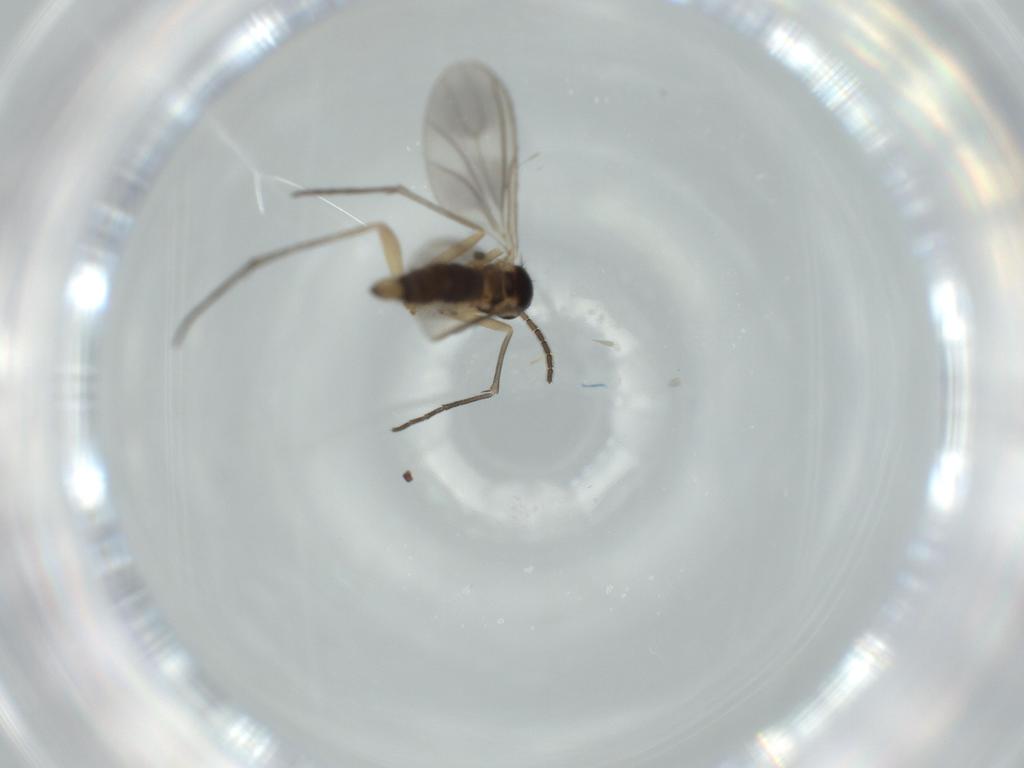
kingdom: Animalia
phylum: Arthropoda
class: Insecta
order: Diptera
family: Sciaridae
